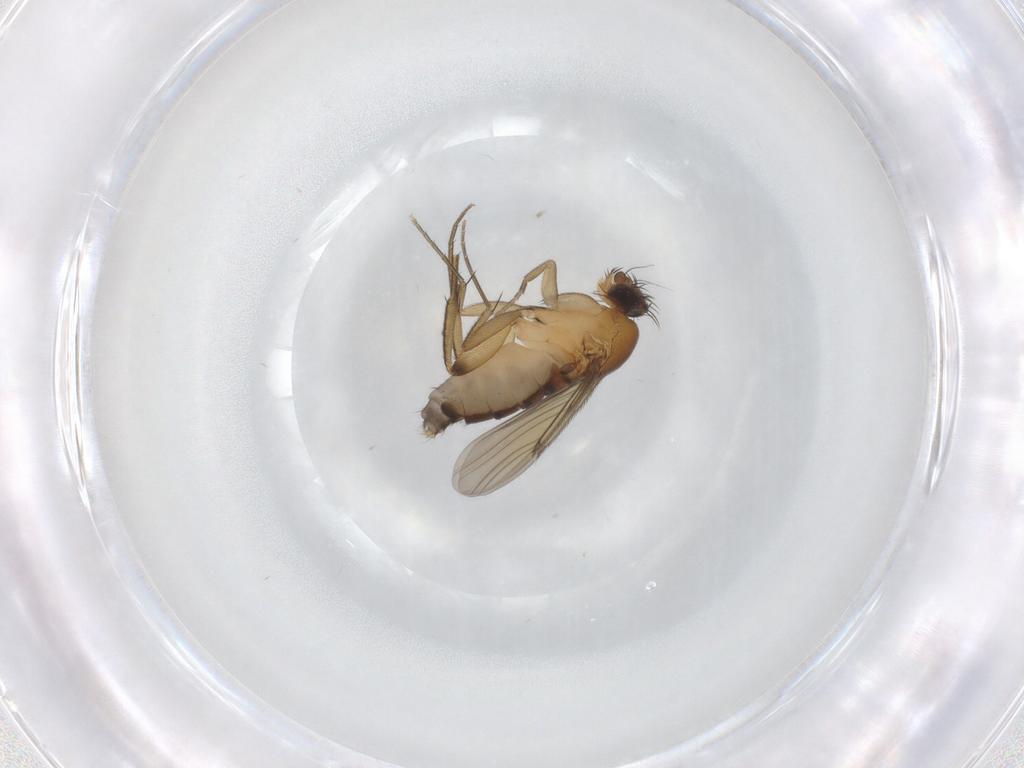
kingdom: Animalia
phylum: Arthropoda
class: Insecta
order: Diptera
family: Phoridae
